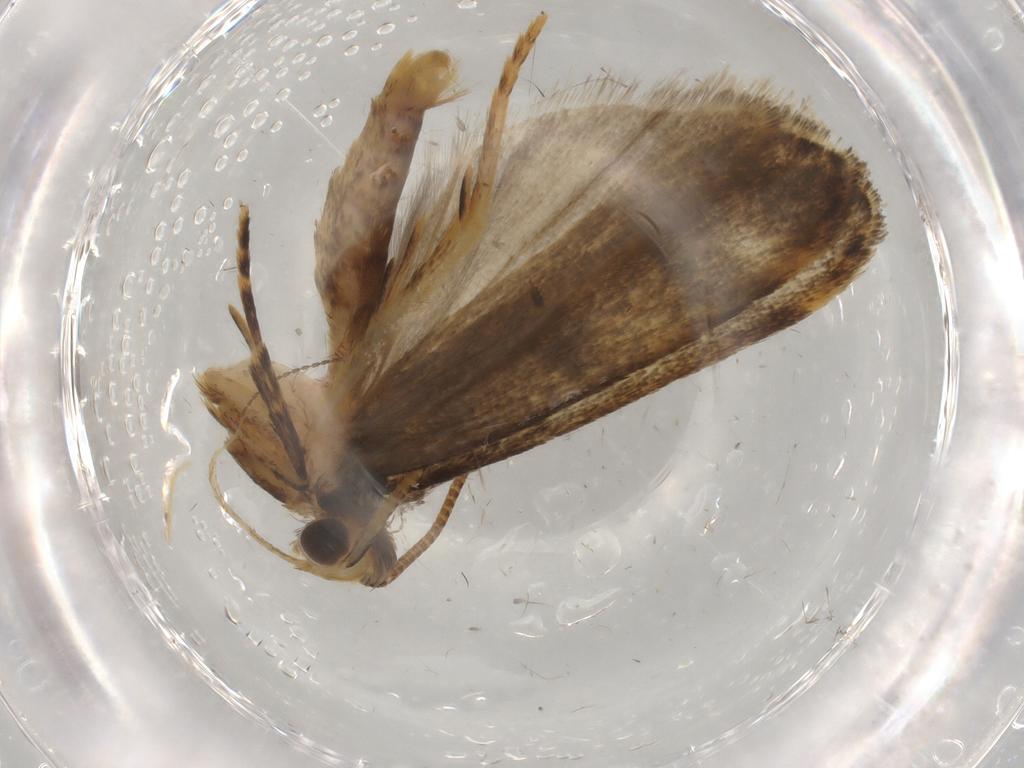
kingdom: Animalia
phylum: Arthropoda
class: Insecta
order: Lepidoptera
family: Autostichidae
